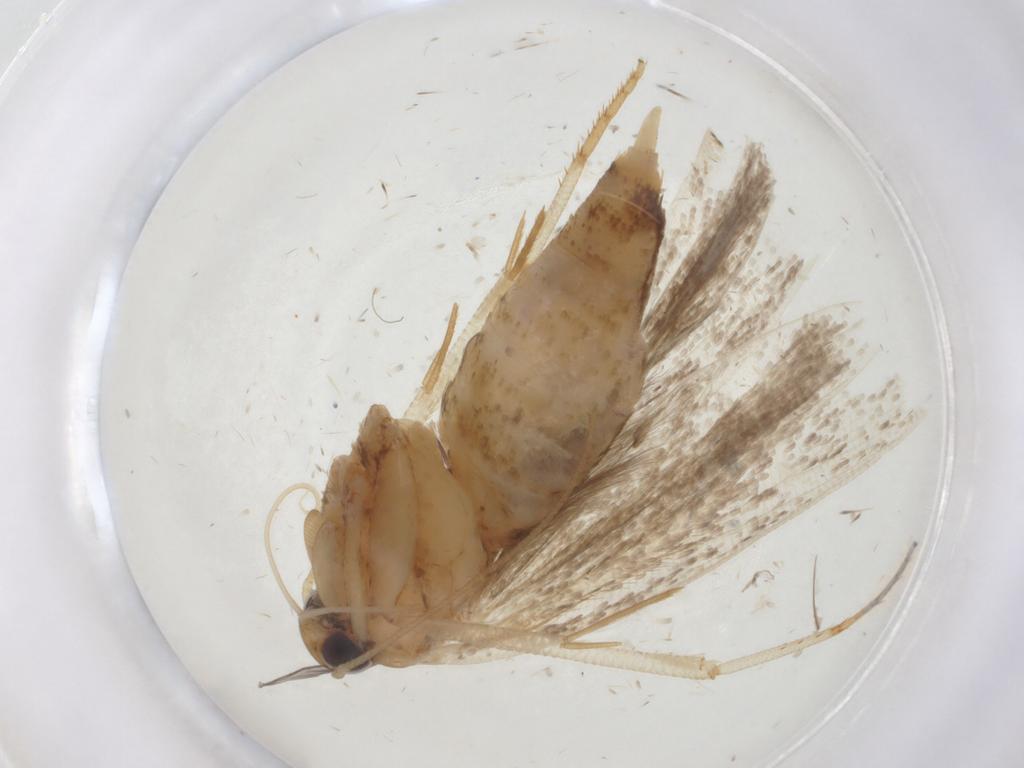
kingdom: Animalia
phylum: Arthropoda
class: Insecta
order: Lepidoptera
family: Gelechiidae
